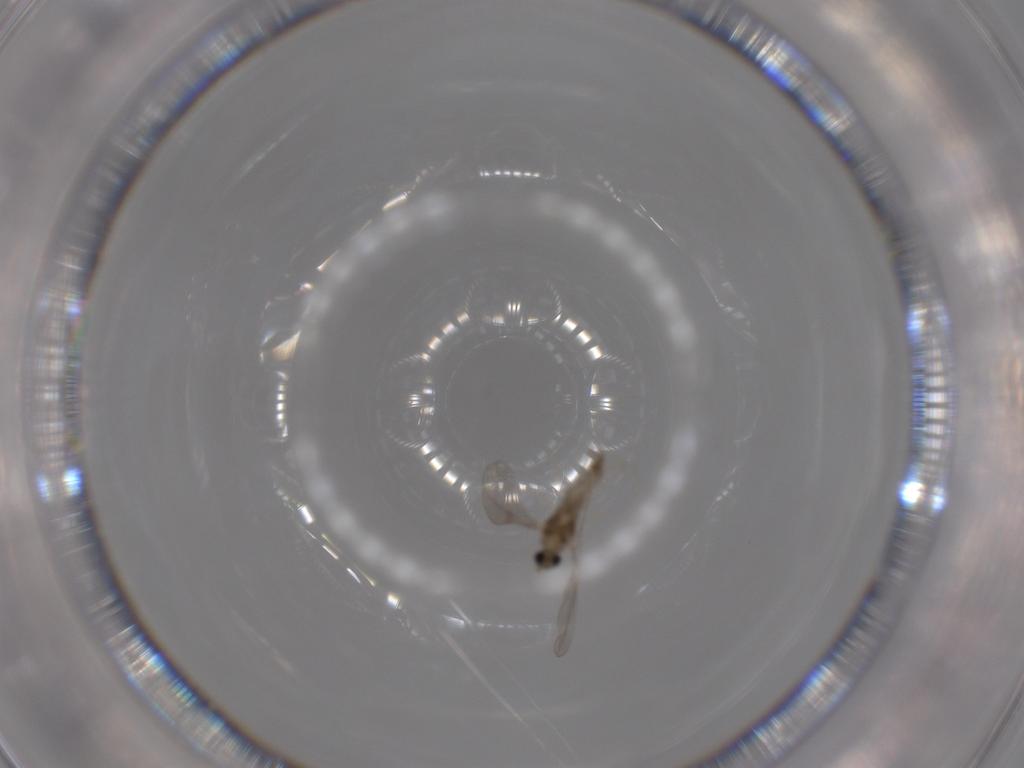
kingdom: Animalia
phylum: Arthropoda
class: Insecta
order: Diptera
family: Cecidomyiidae
